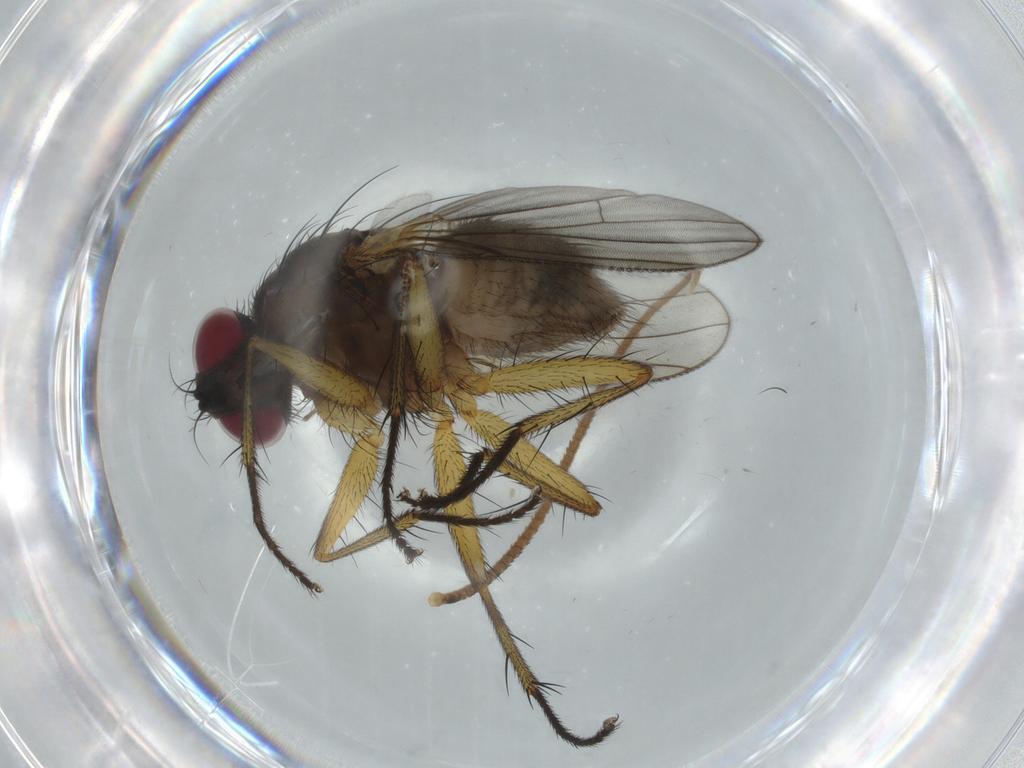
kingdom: Animalia
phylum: Arthropoda
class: Insecta
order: Diptera
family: Muscidae
